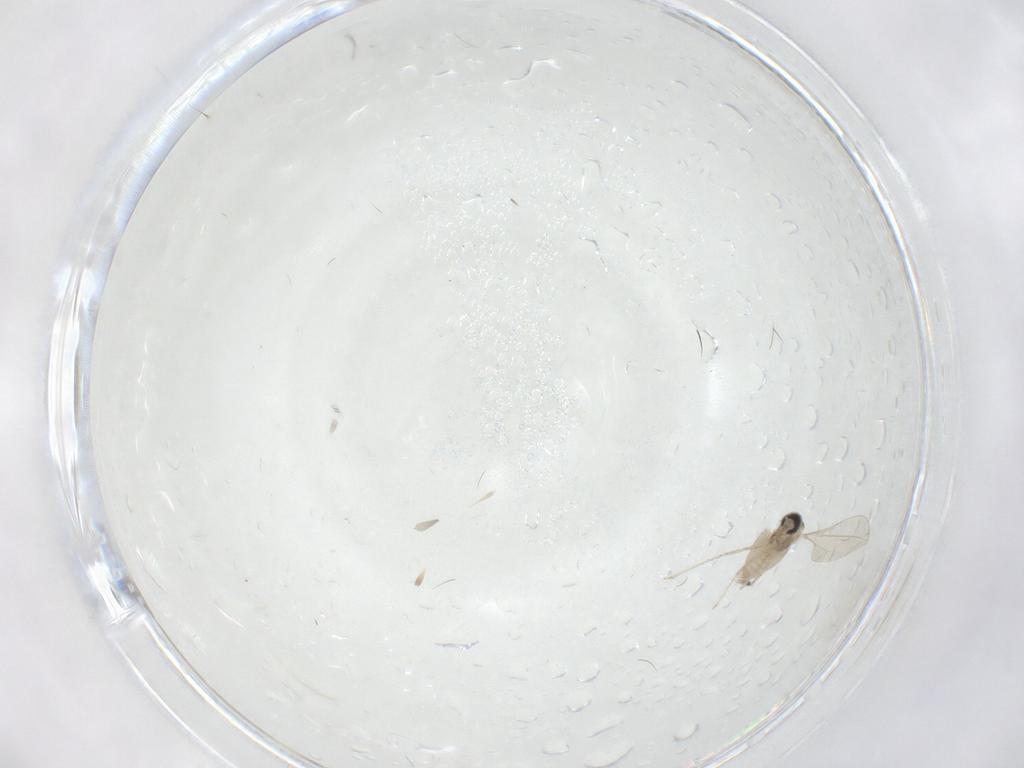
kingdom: Animalia
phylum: Arthropoda
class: Insecta
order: Diptera
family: Cecidomyiidae
